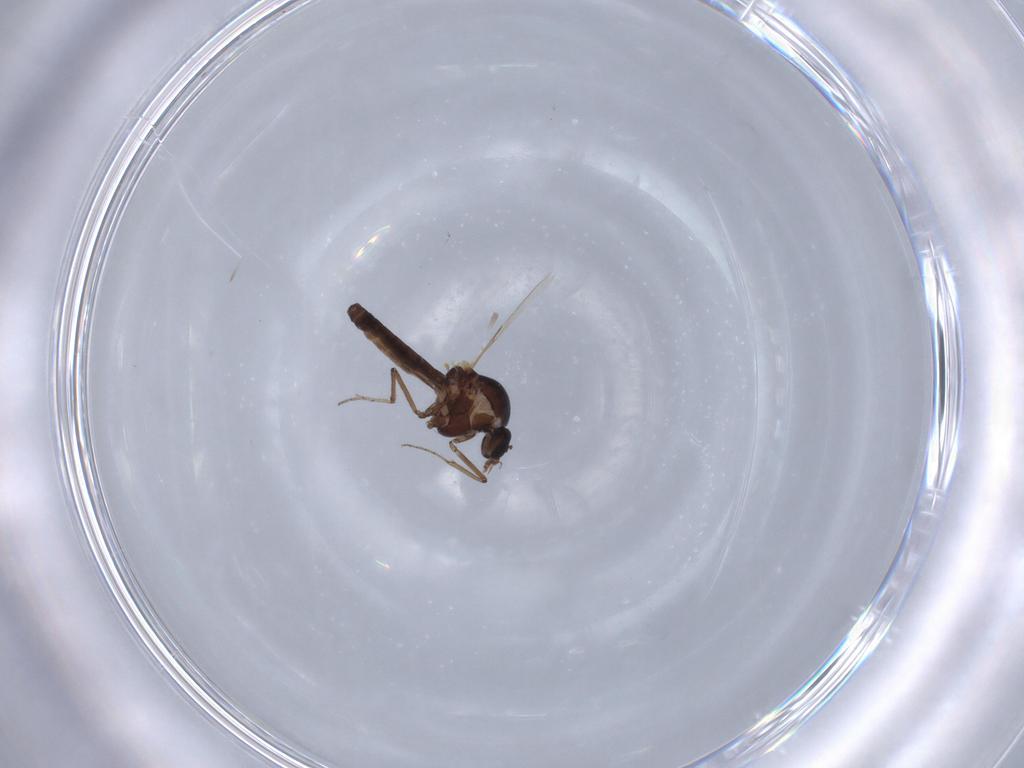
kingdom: Animalia
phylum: Arthropoda
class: Insecta
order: Diptera
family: Ceratopogonidae
